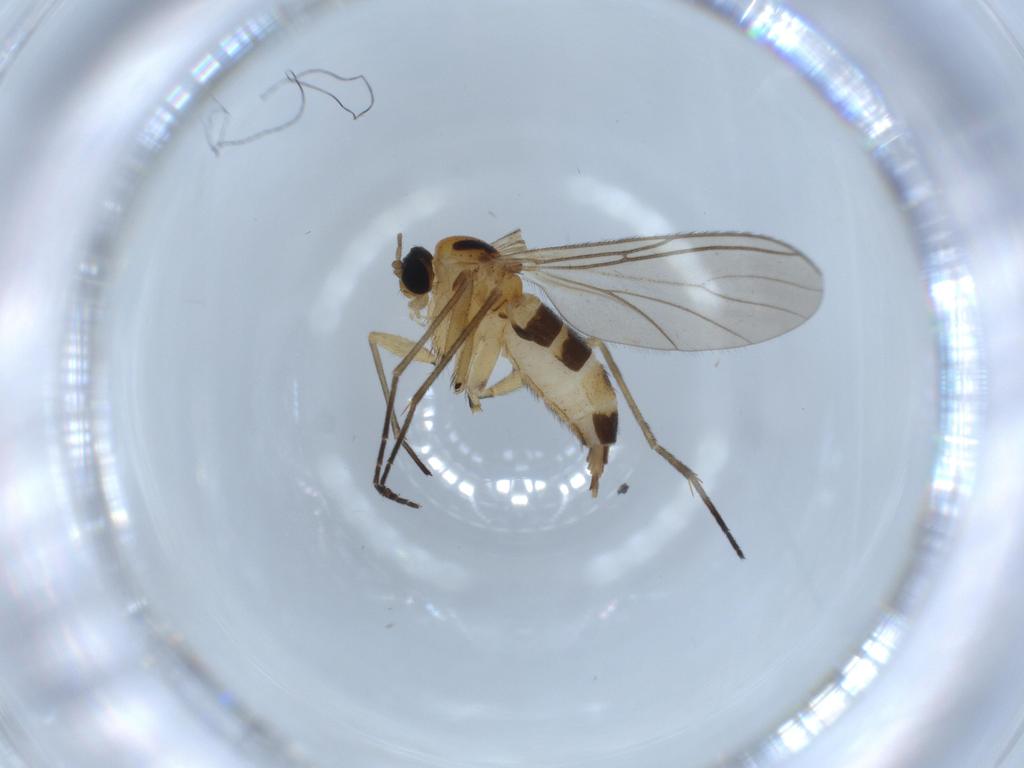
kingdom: Animalia
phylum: Arthropoda
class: Insecta
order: Diptera
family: Sciaridae
